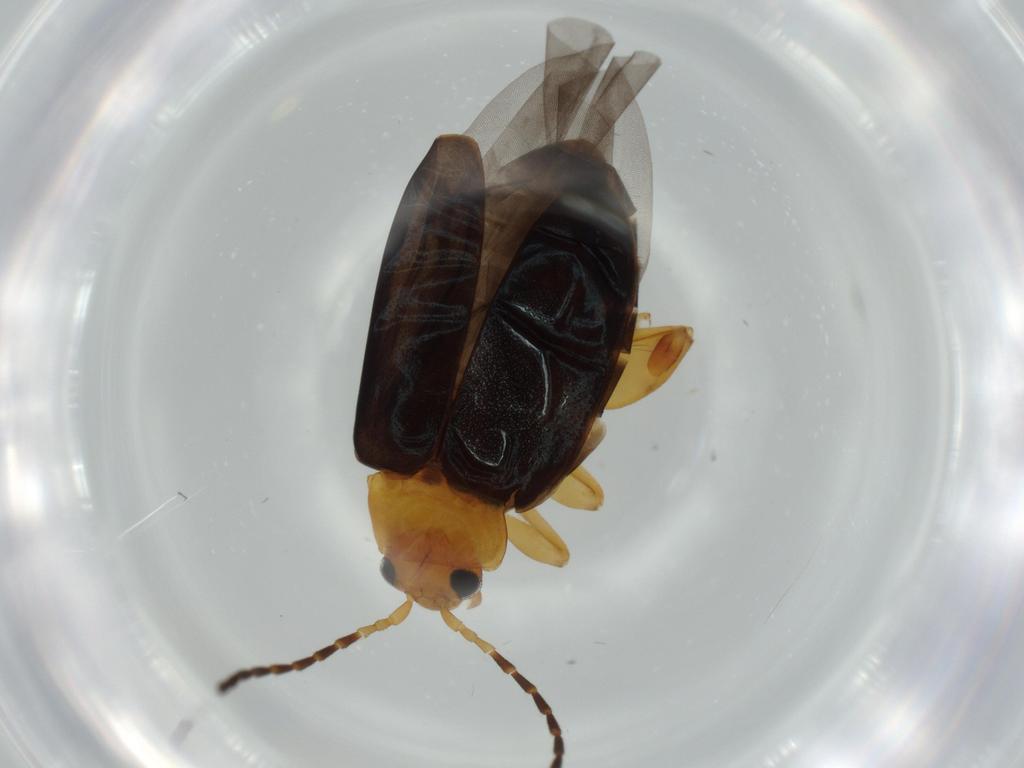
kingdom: Animalia
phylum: Arthropoda
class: Insecta
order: Coleoptera
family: Chrysomelidae
